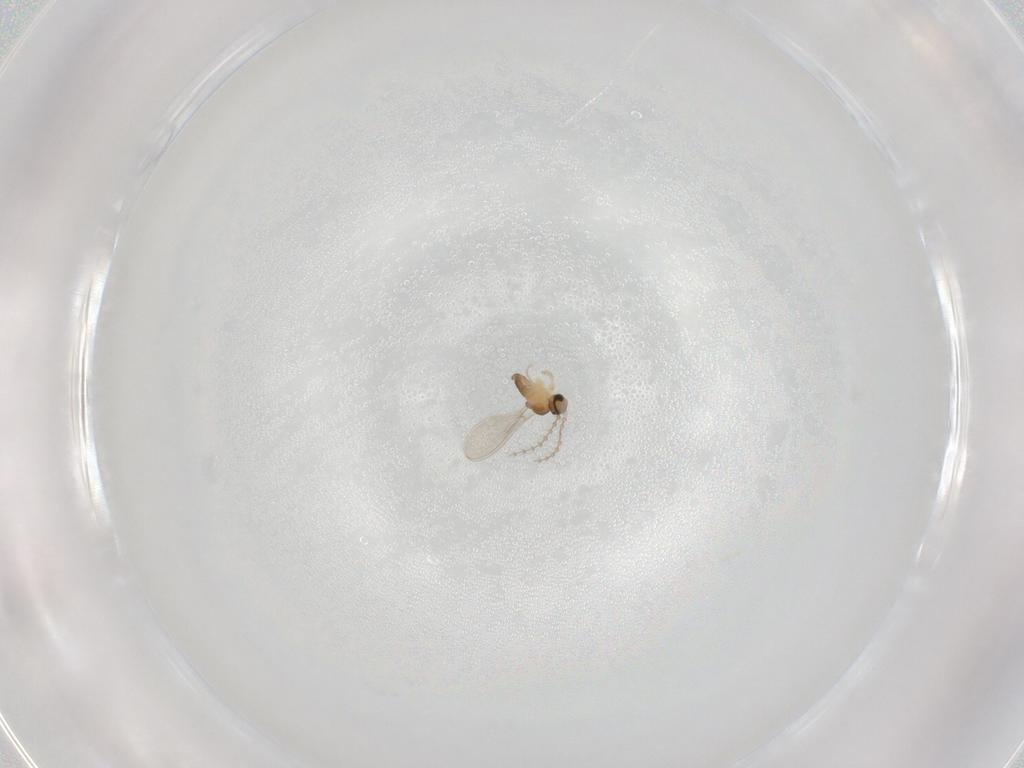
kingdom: Animalia
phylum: Arthropoda
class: Insecta
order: Diptera
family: Cecidomyiidae
